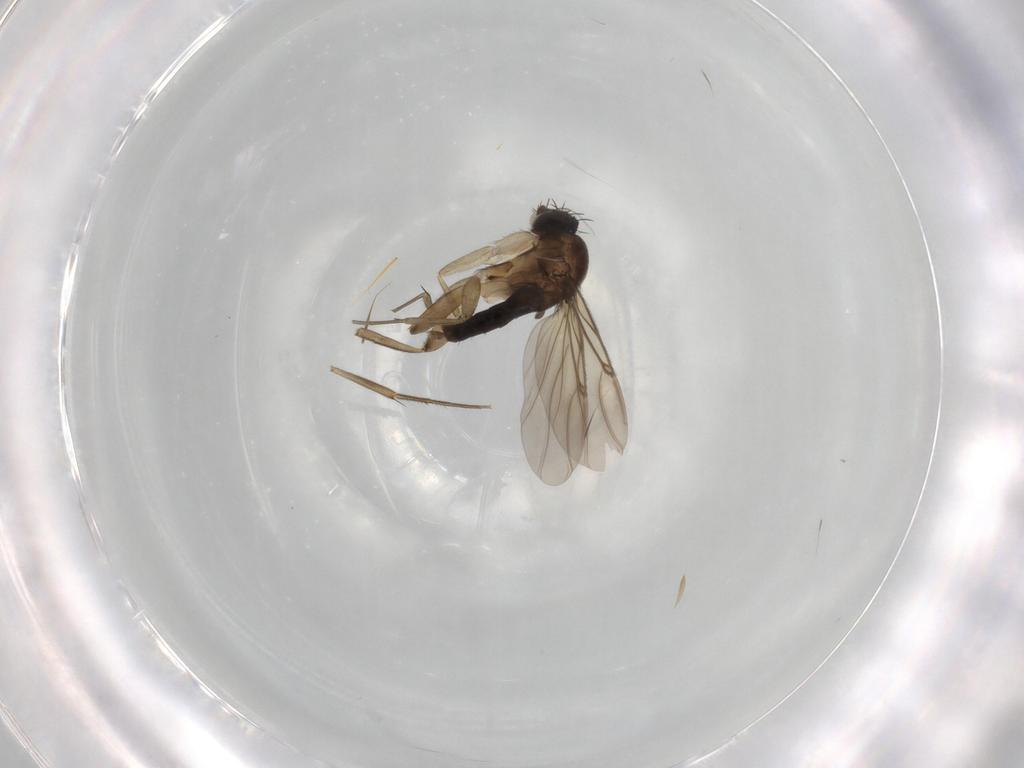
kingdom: Animalia
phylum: Arthropoda
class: Insecta
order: Diptera
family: Phoridae
